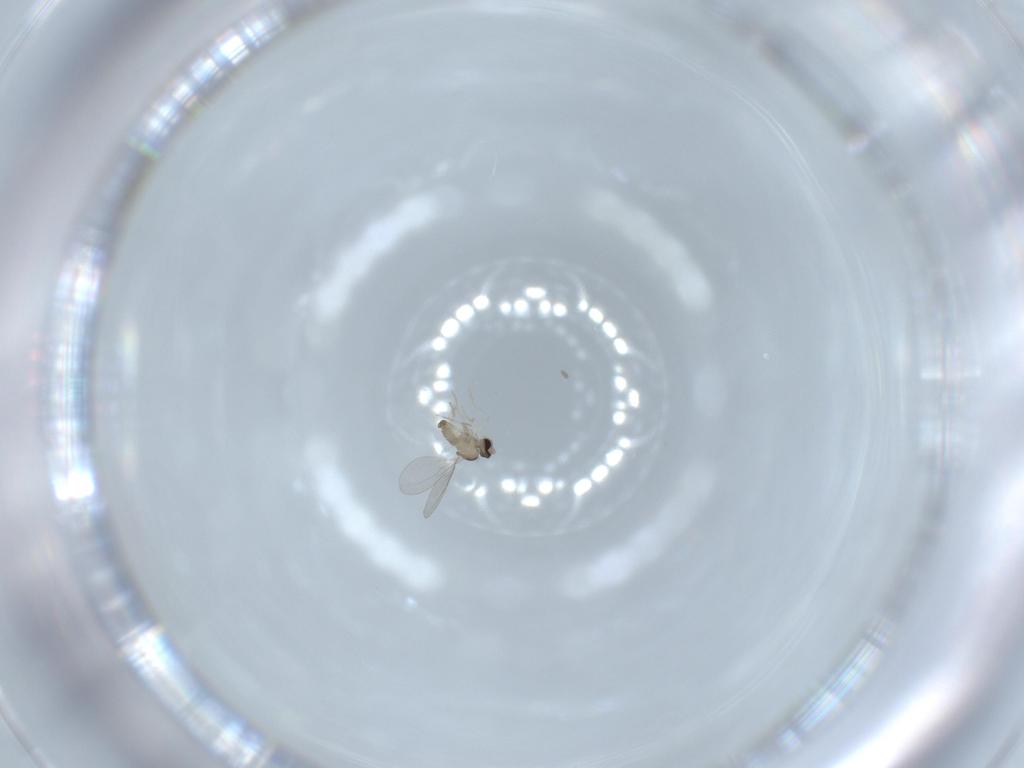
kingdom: Animalia
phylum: Arthropoda
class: Insecta
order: Diptera
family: Cecidomyiidae
